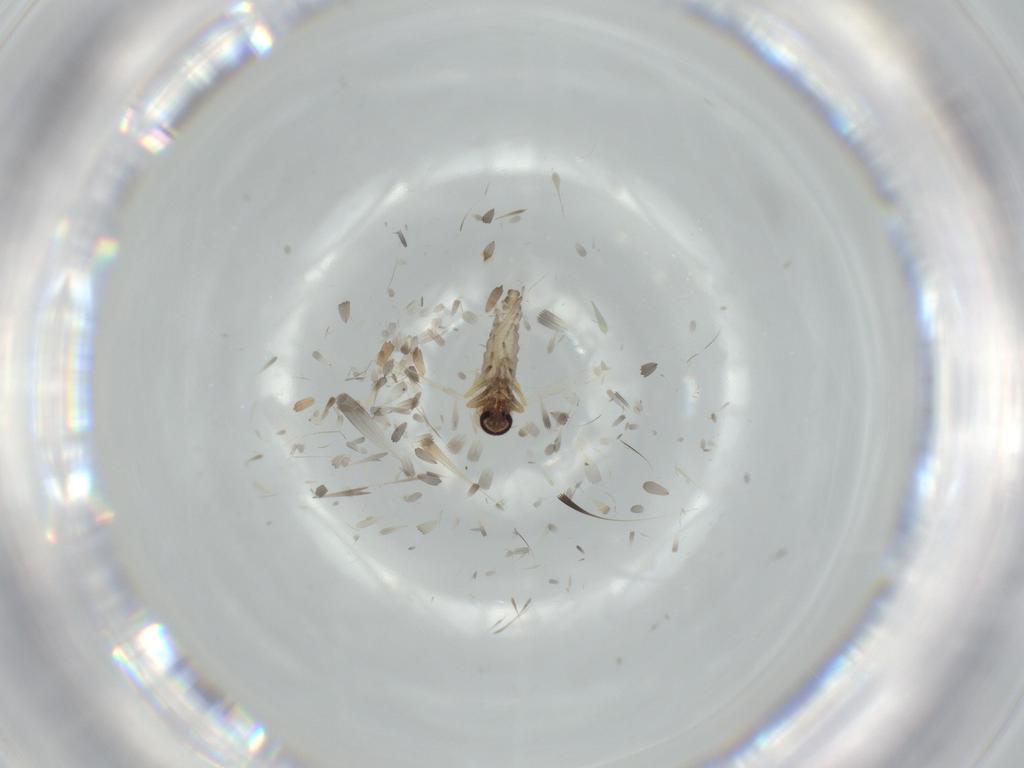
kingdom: Animalia
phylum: Arthropoda
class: Insecta
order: Diptera
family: Ceratopogonidae
